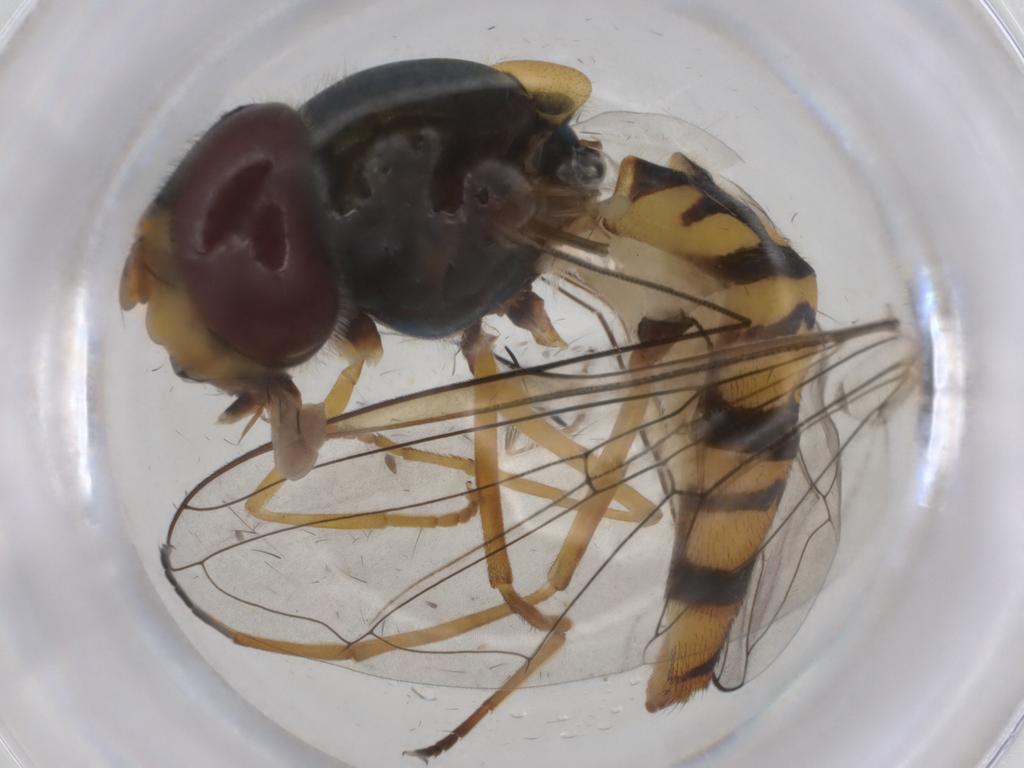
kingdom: Animalia
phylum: Arthropoda
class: Insecta
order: Diptera
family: Syrphidae
